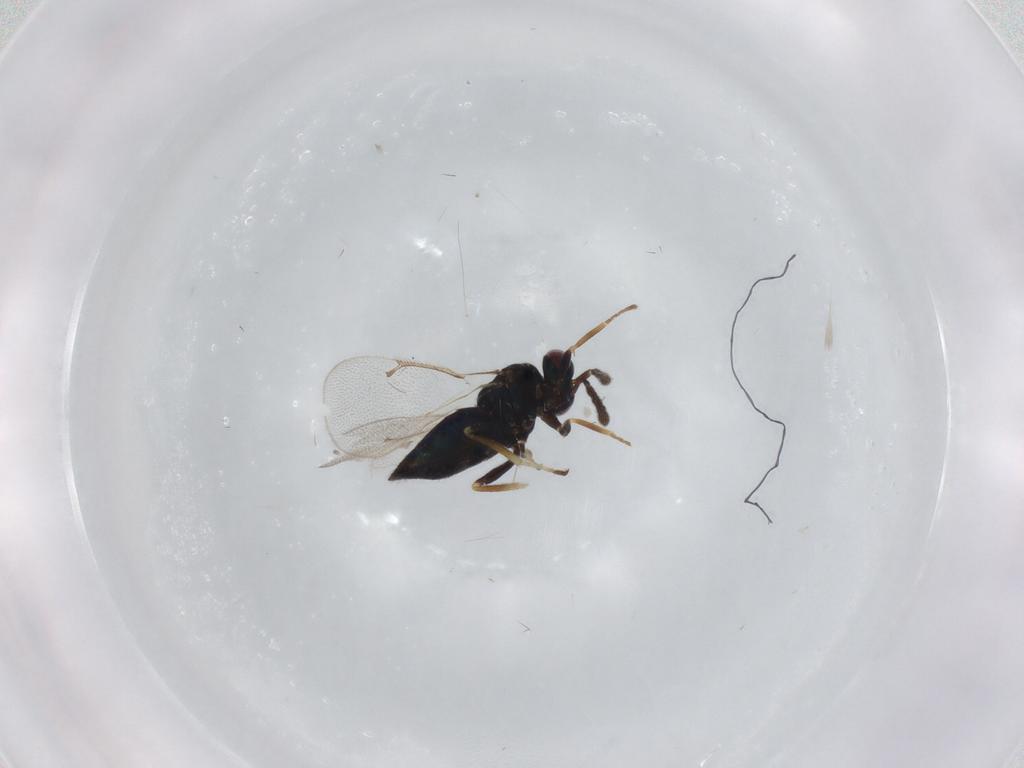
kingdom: Animalia
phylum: Arthropoda
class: Insecta
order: Hymenoptera
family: Eulophidae
